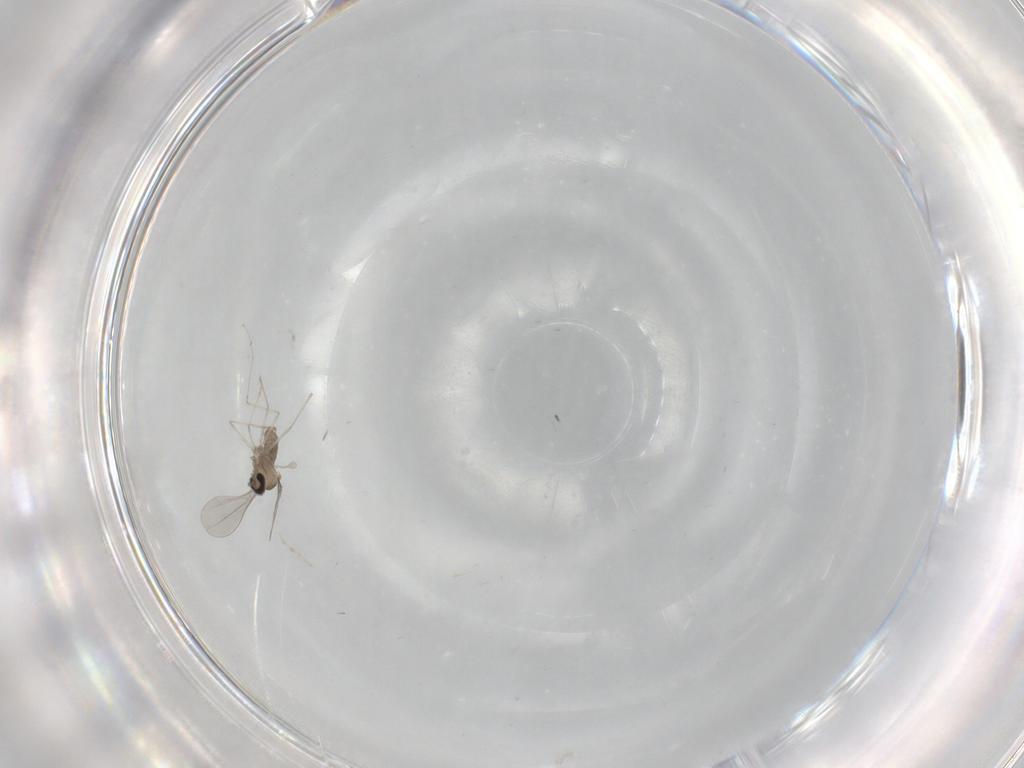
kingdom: Animalia
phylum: Arthropoda
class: Insecta
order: Diptera
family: Cecidomyiidae
